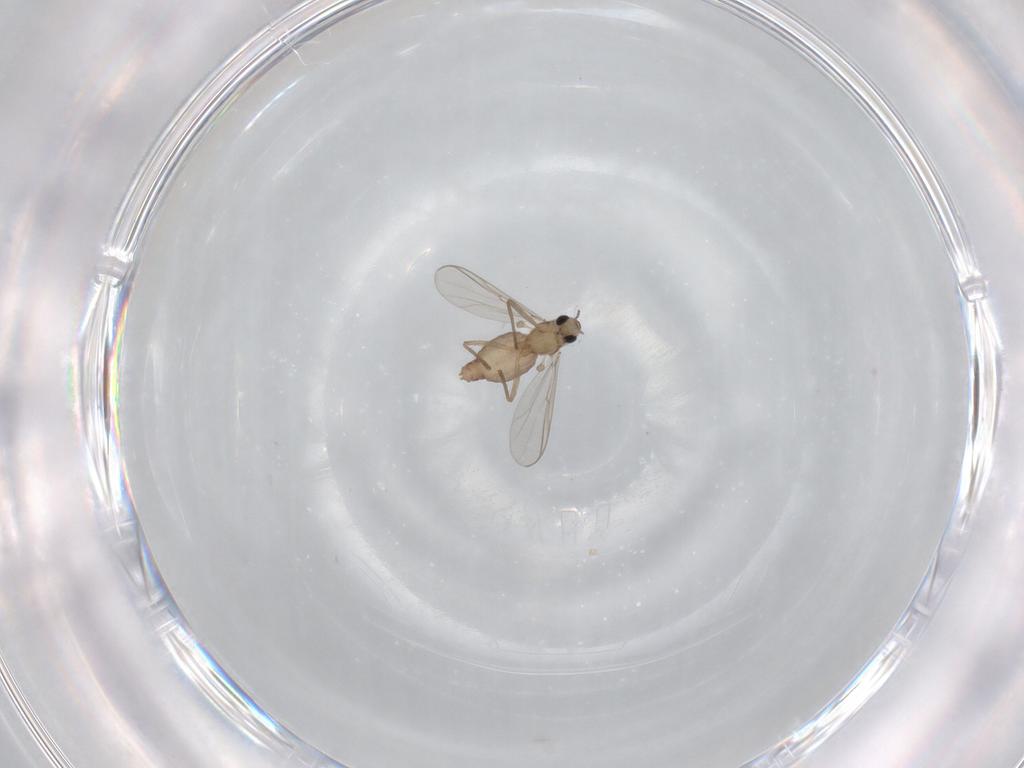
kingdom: Animalia
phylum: Arthropoda
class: Insecta
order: Diptera
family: Chironomidae
